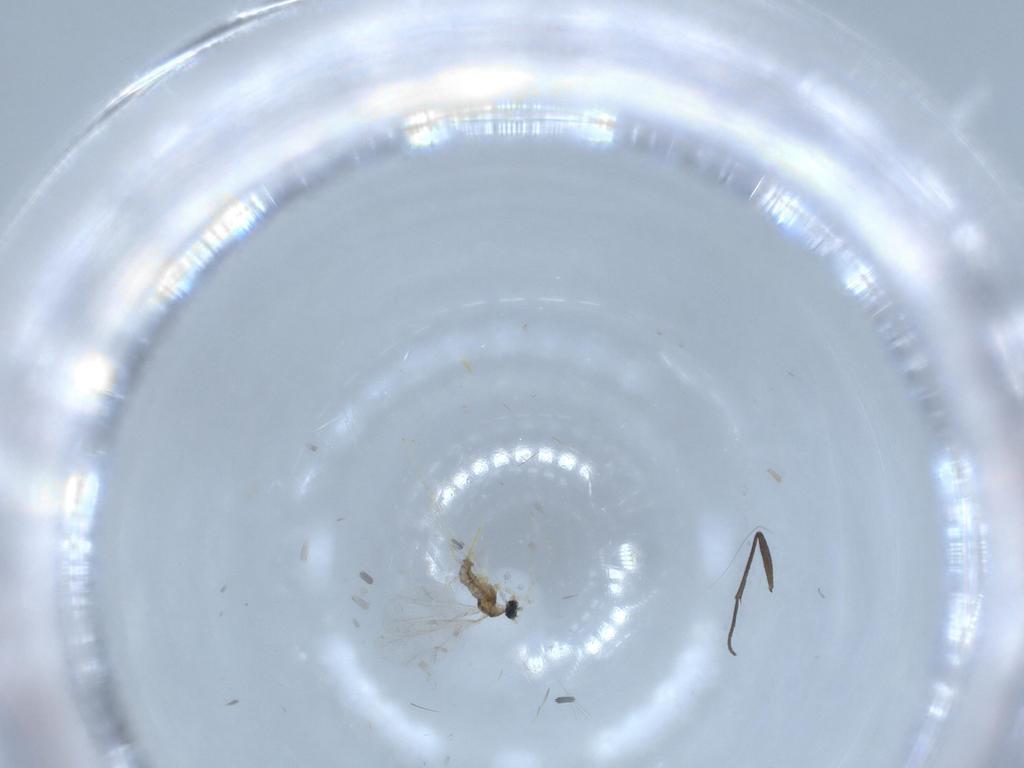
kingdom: Animalia
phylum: Arthropoda
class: Insecta
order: Diptera
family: Cecidomyiidae
